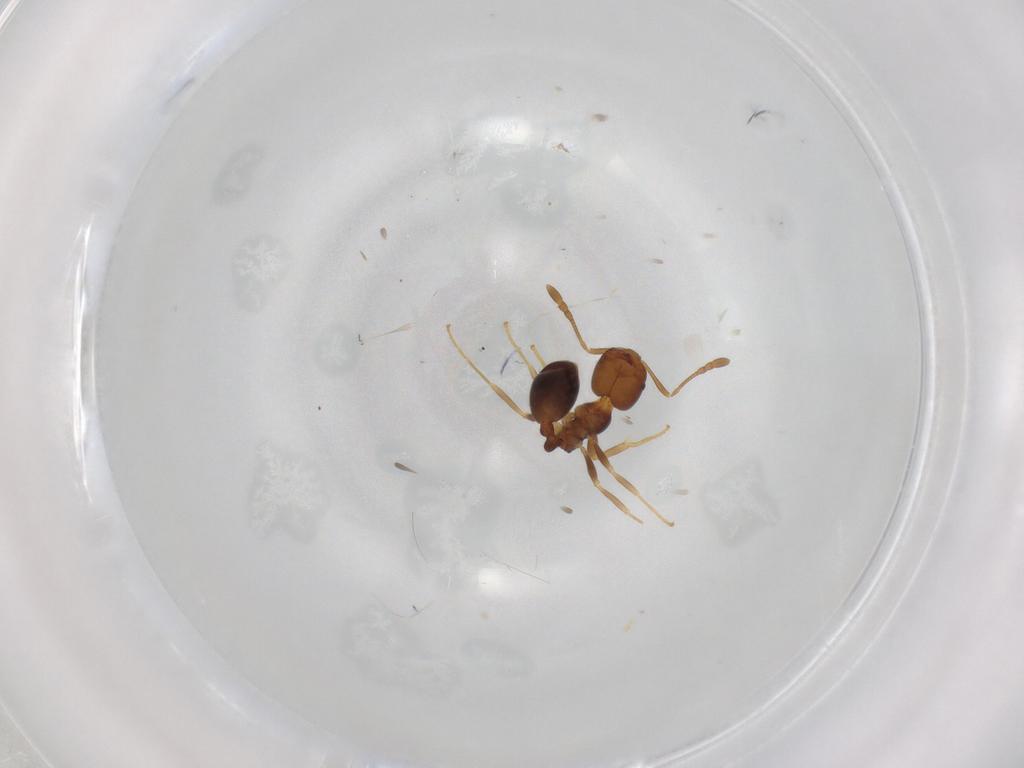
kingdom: Animalia
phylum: Arthropoda
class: Insecta
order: Hymenoptera
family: Formicidae
